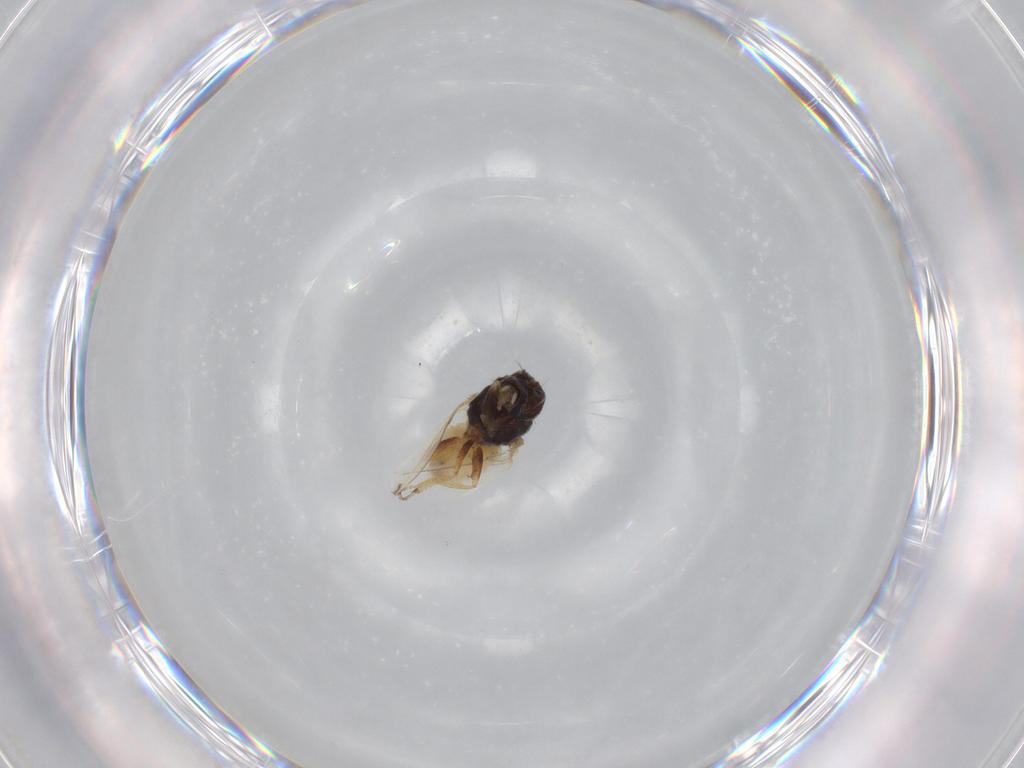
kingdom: Animalia
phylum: Arthropoda
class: Insecta
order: Diptera
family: Ephydridae
